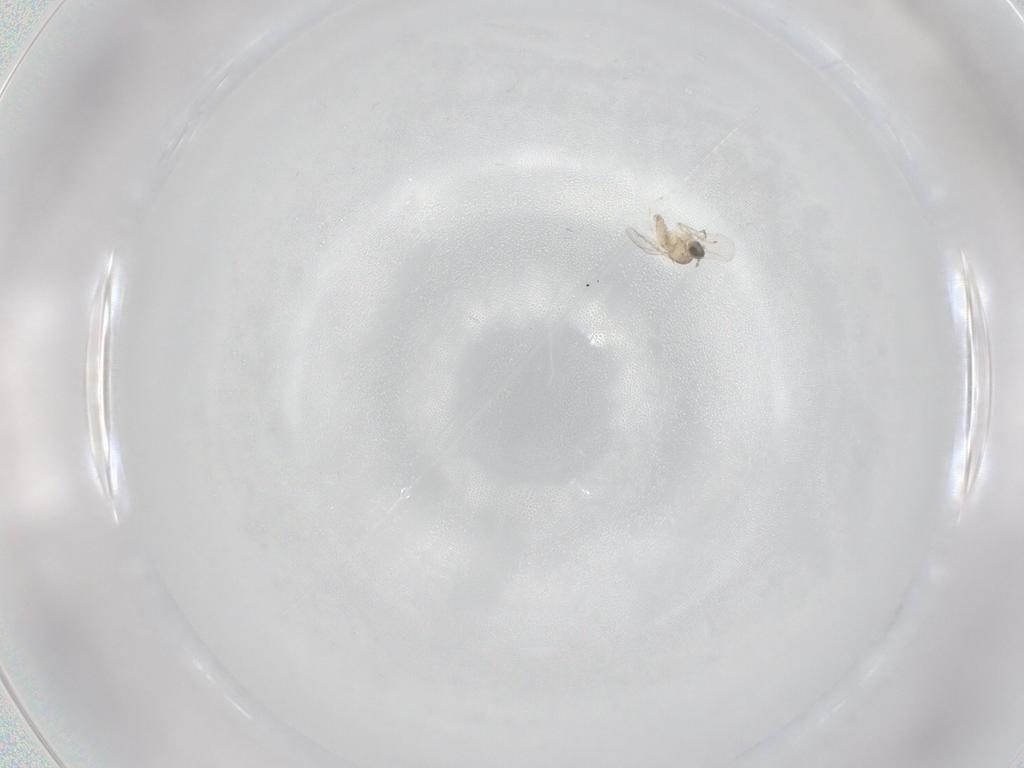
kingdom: Animalia
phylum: Arthropoda
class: Insecta
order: Diptera
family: Cecidomyiidae
